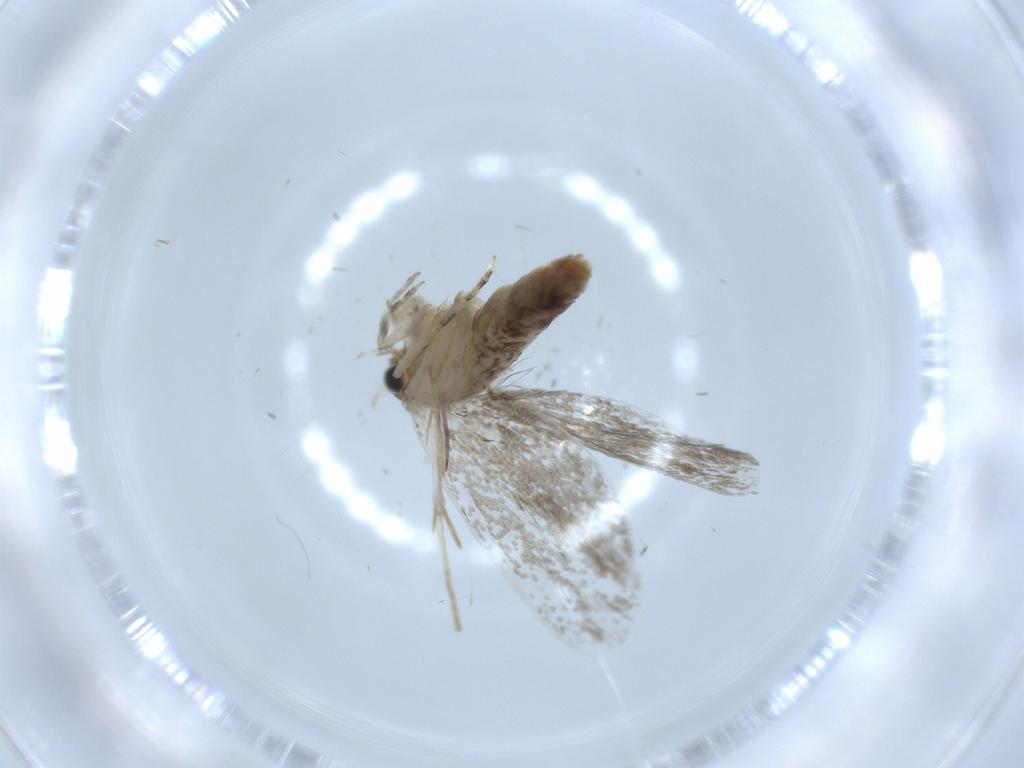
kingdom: Animalia
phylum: Arthropoda
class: Insecta
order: Lepidoptera
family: Tineidae
